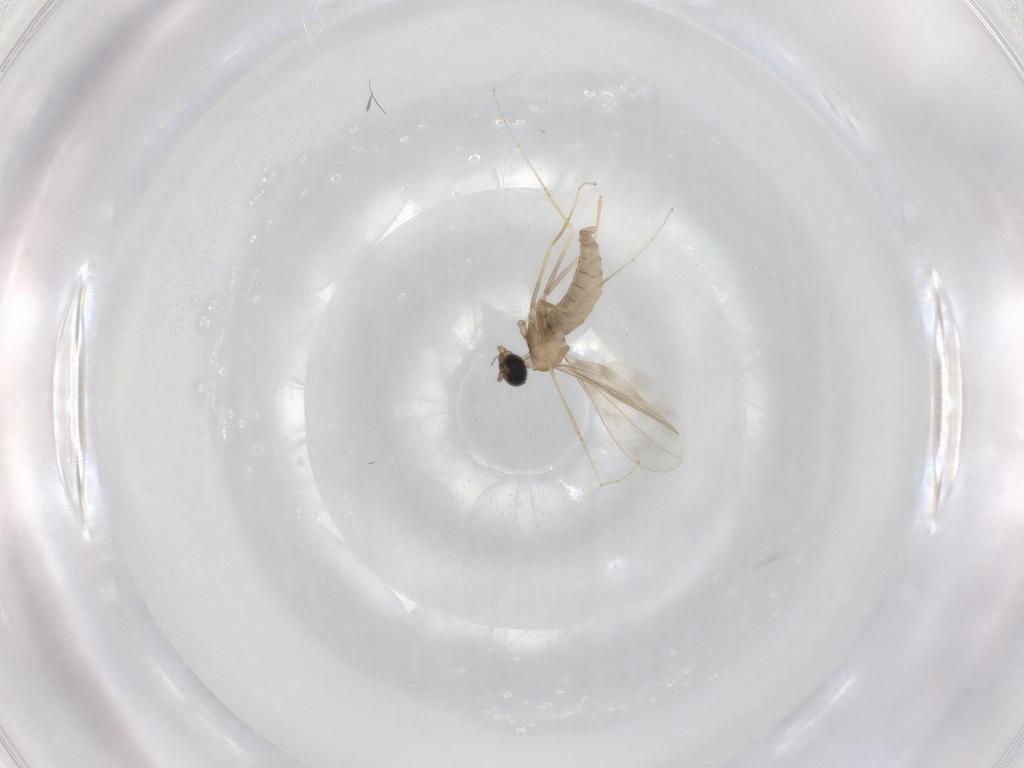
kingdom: Animalia
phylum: Arthropoda
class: Insecta
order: Diptera
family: Cecidomyiidae
